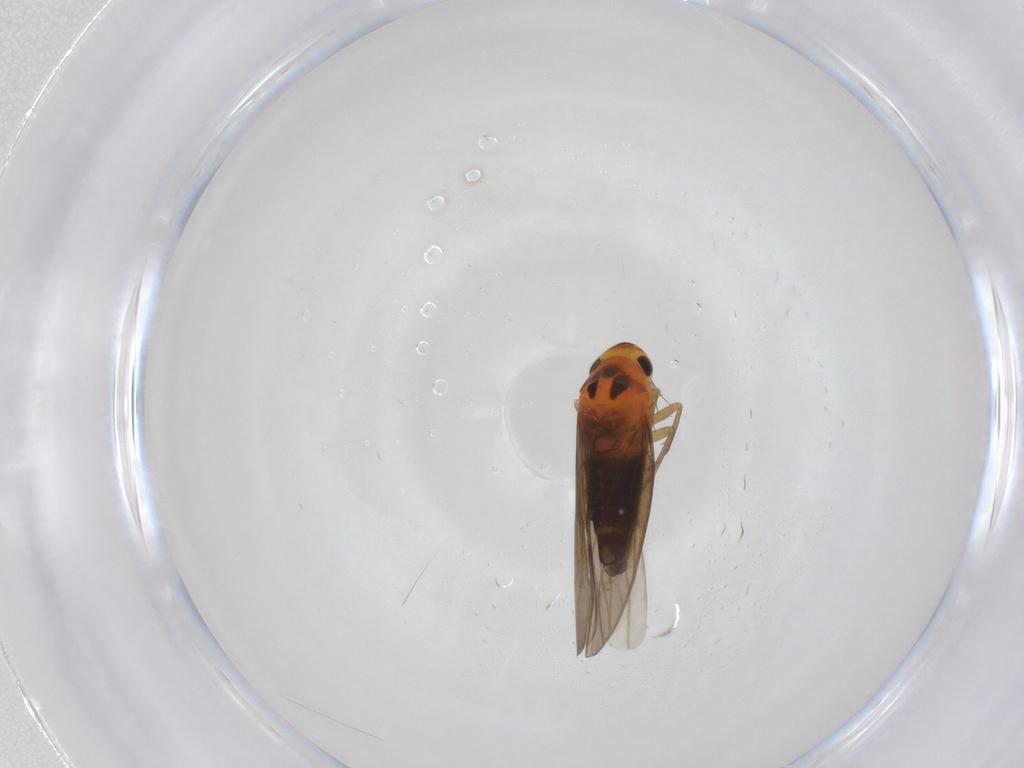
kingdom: Animalia
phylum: Arthropoda
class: Insecta
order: Hemiptera
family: Cicadellidae
